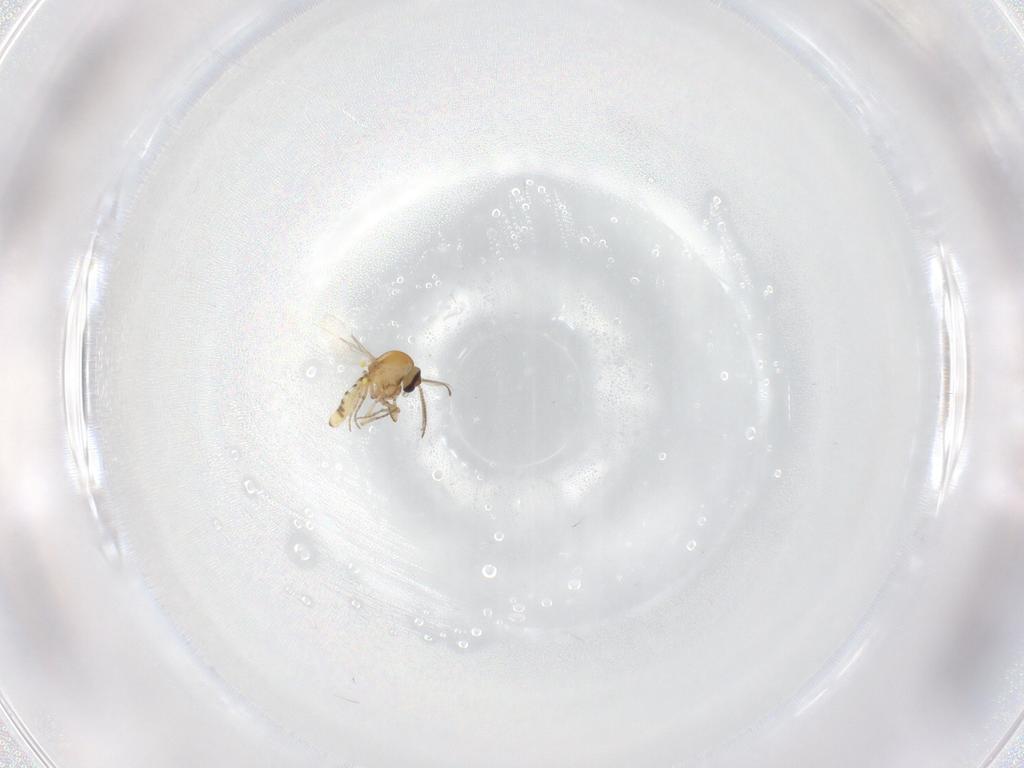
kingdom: Animalia
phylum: Arthropoda
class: Insecta
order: Diptera
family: Ceratopogonidae
